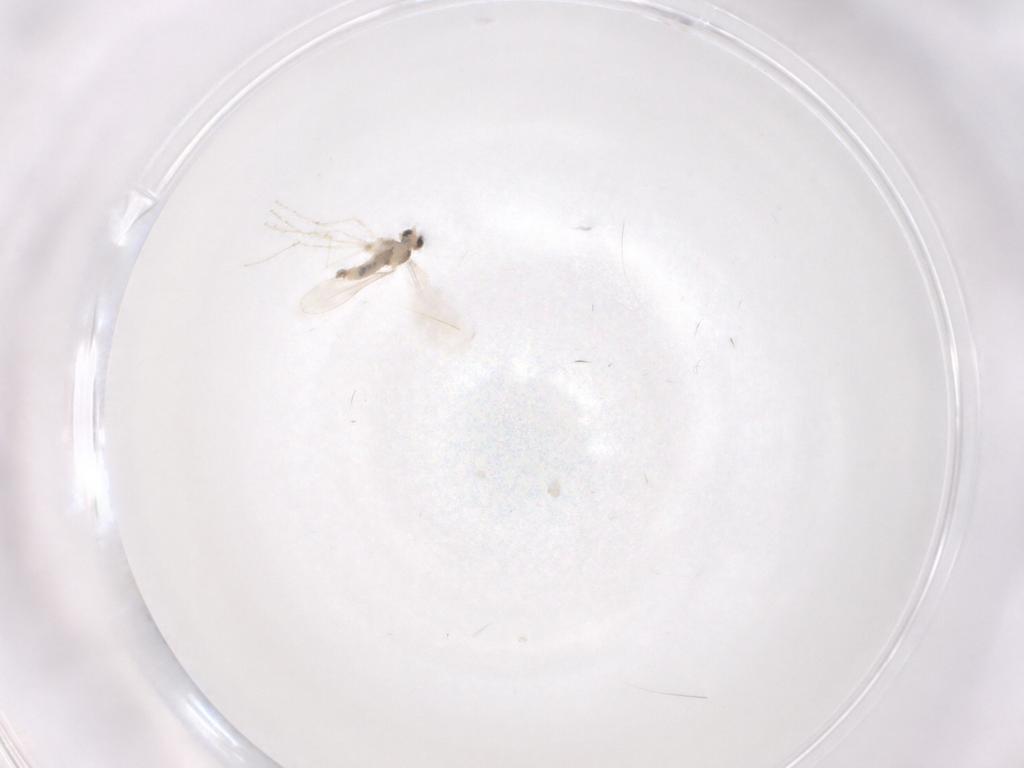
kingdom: Animalia
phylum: Arthropoda
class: Insecta
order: Diptera
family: Cecidomyiidae
